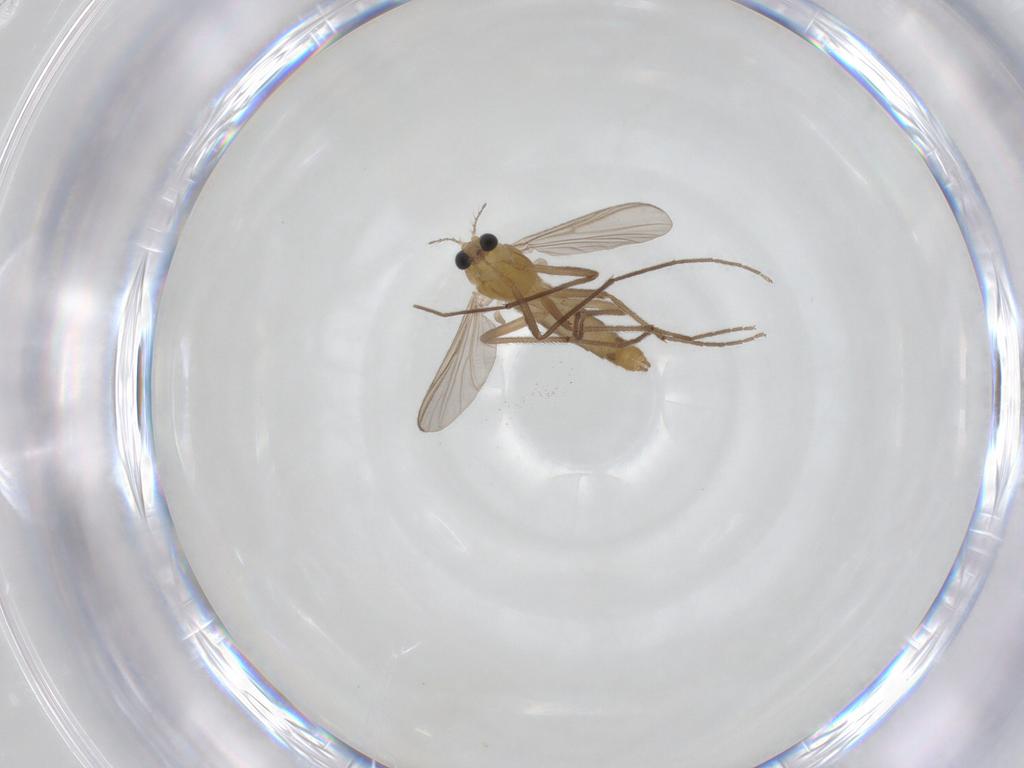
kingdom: Animalia
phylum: Arthropoda
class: Insecta
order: Diptera
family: Chironomidae
